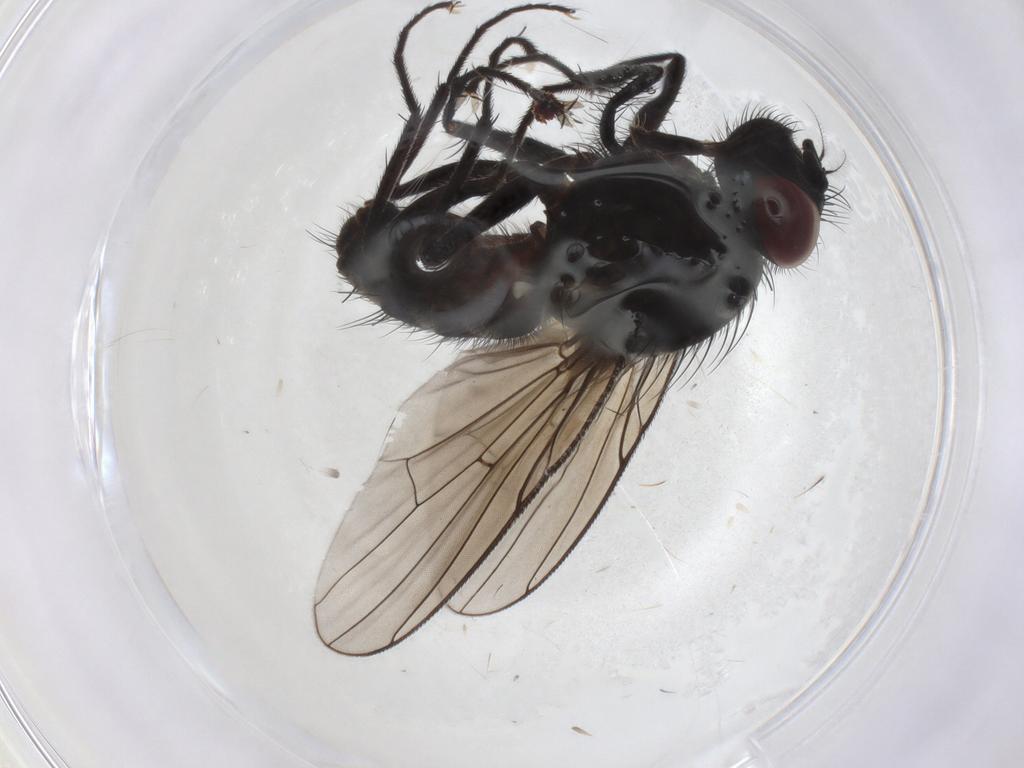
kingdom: Animalia
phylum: Arthropoda
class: Insecta
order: Diptera
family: Muscidae
